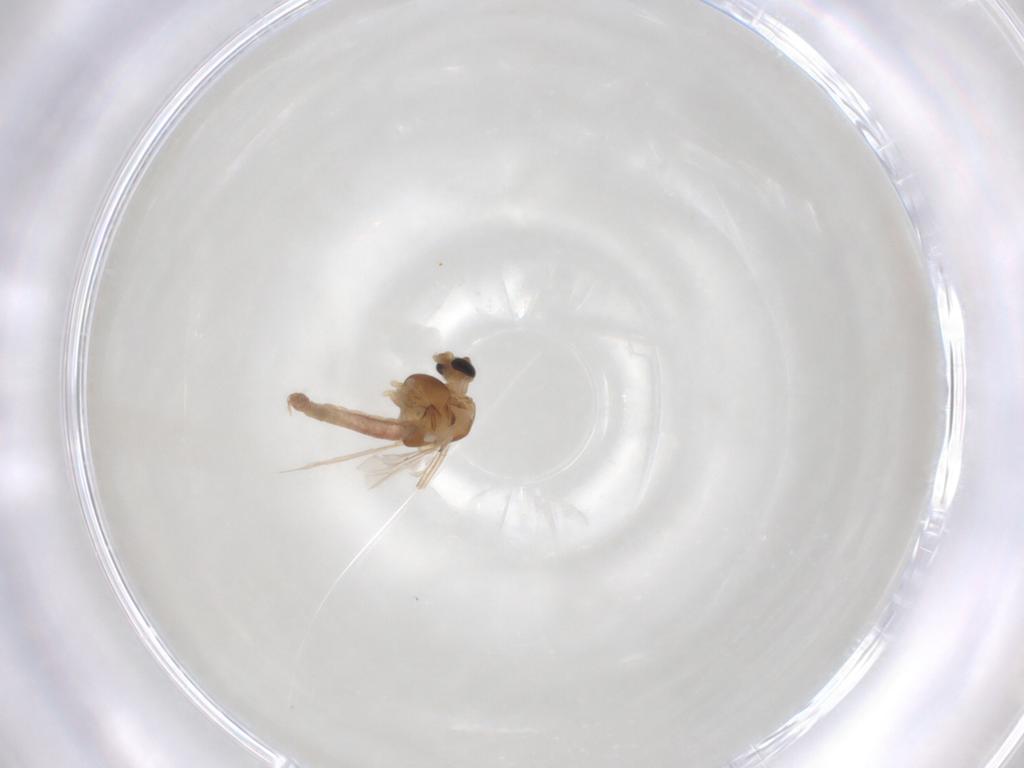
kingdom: Animalia
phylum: Arthropoda
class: Insecta
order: Diptera
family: Chironomidae
